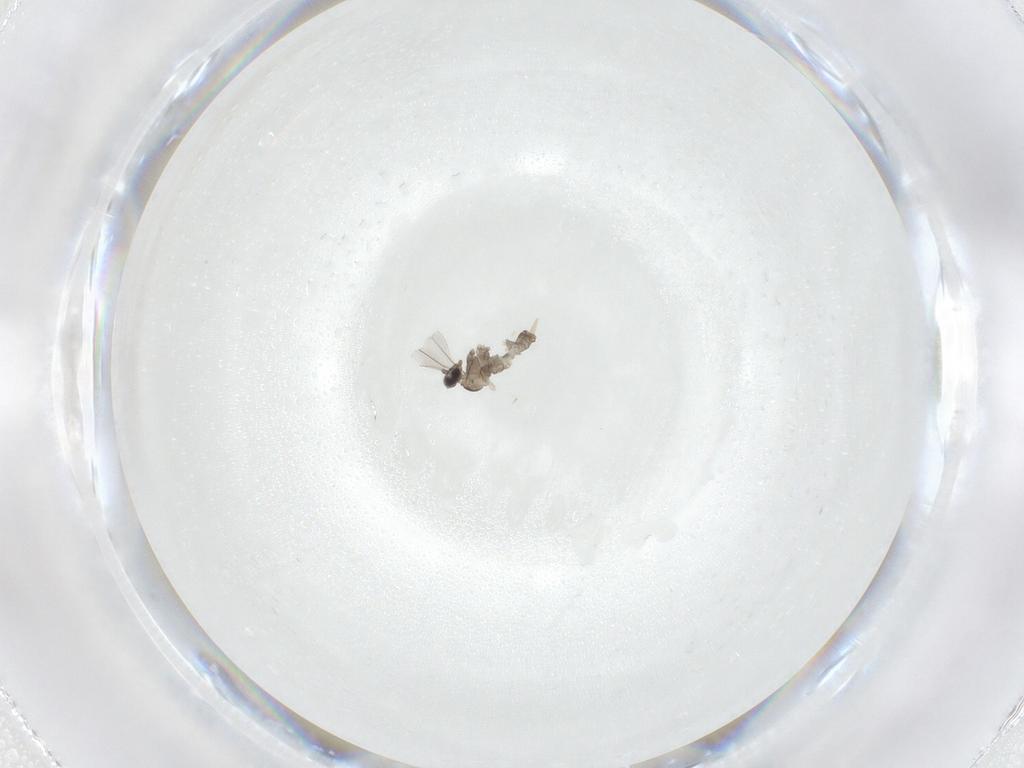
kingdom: Animalia
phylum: Arthropoda
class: Insecta
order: Diptera
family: Cecidomyiidae
